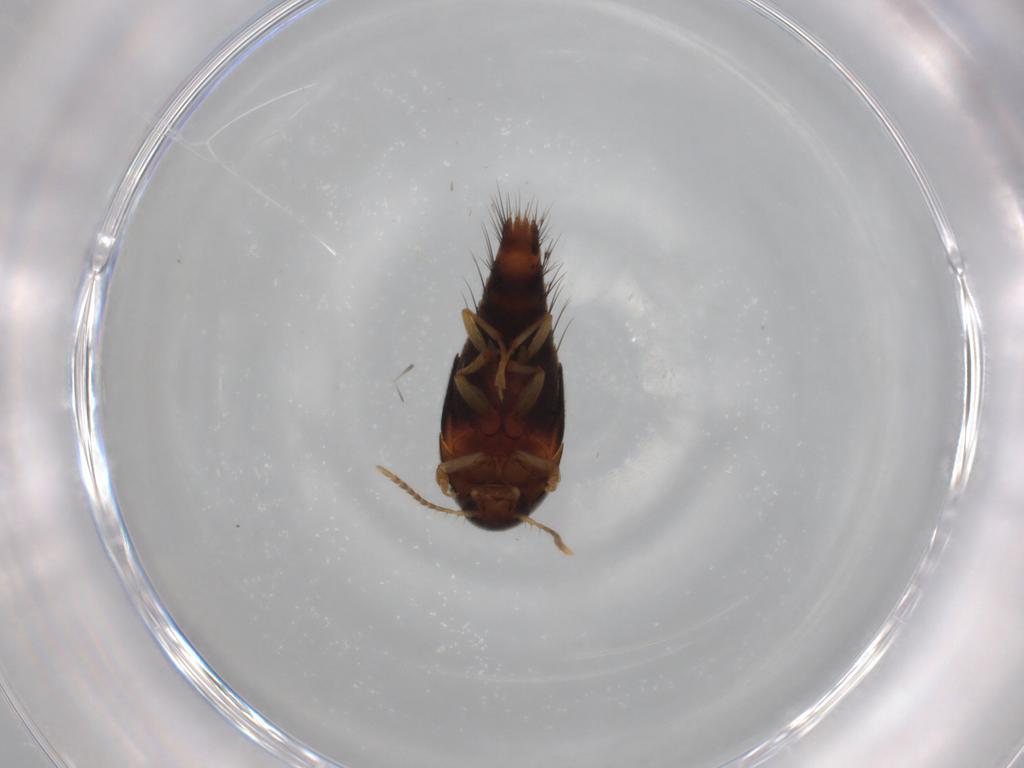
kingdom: Animalia
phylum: Arthropoda
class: Insecta
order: Coleoptera
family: Staphylinidae
